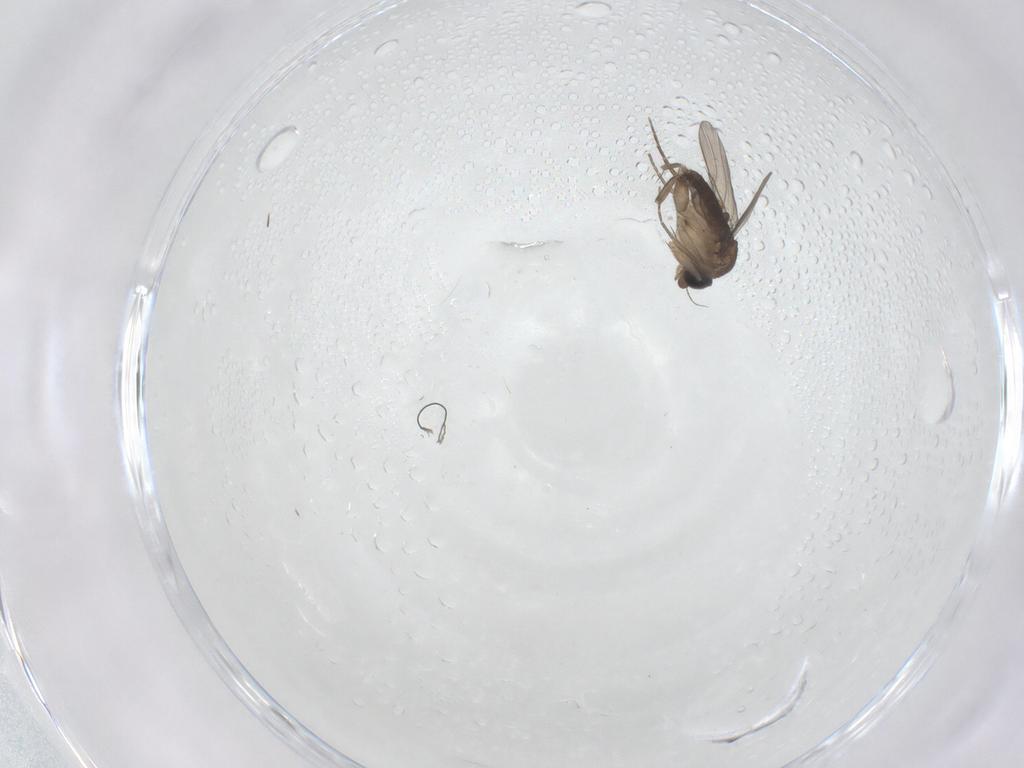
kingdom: Animalia
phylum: Arthropoda
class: Insecta
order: Diptera
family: Phoridae
